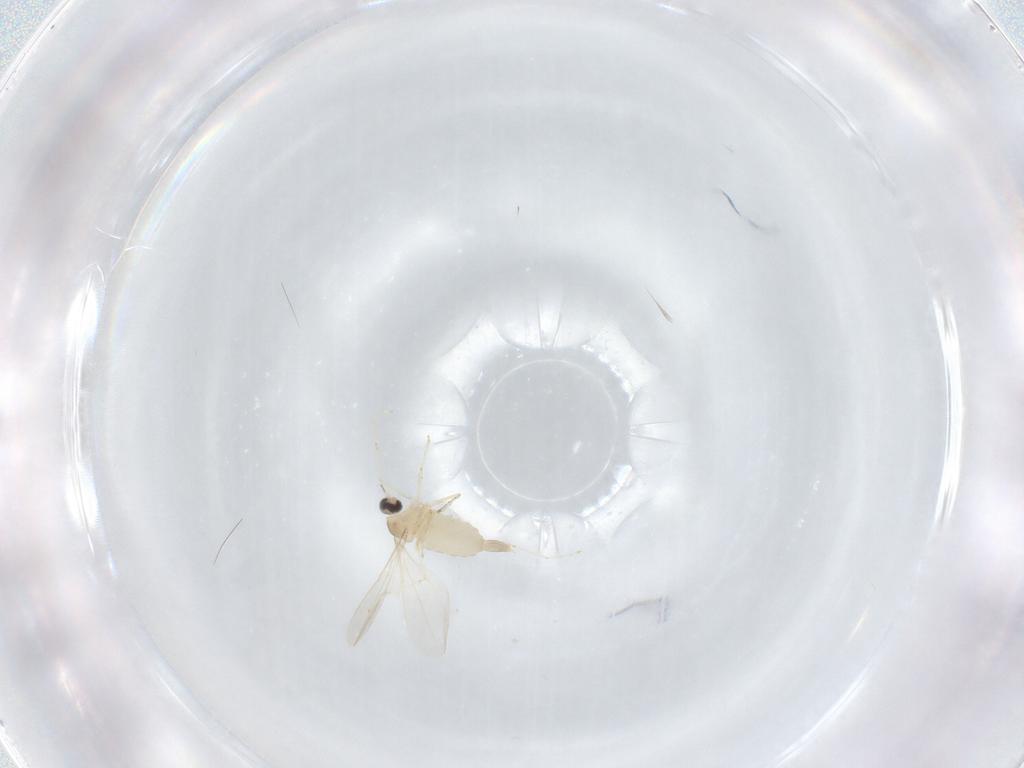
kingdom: Animalia
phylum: Arthropoda
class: Insecta
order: Diptera
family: Cecidomyiidae
